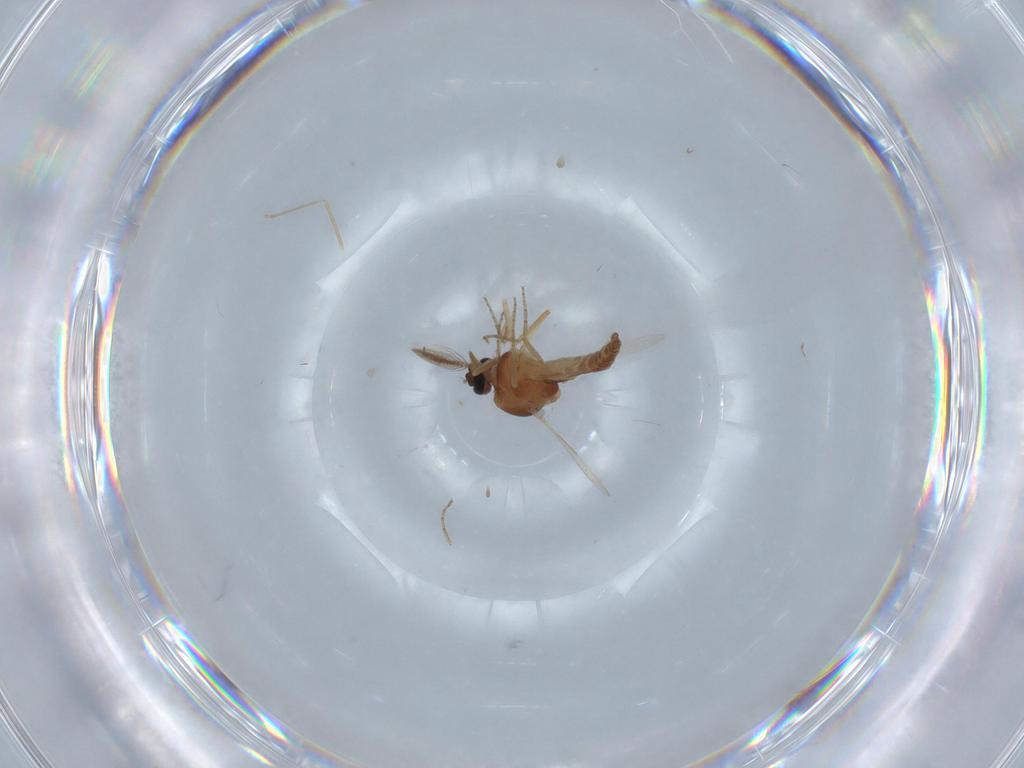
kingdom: Animalia
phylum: Arthropoda
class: Insecta
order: Diptera
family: Ceratopogonidae
